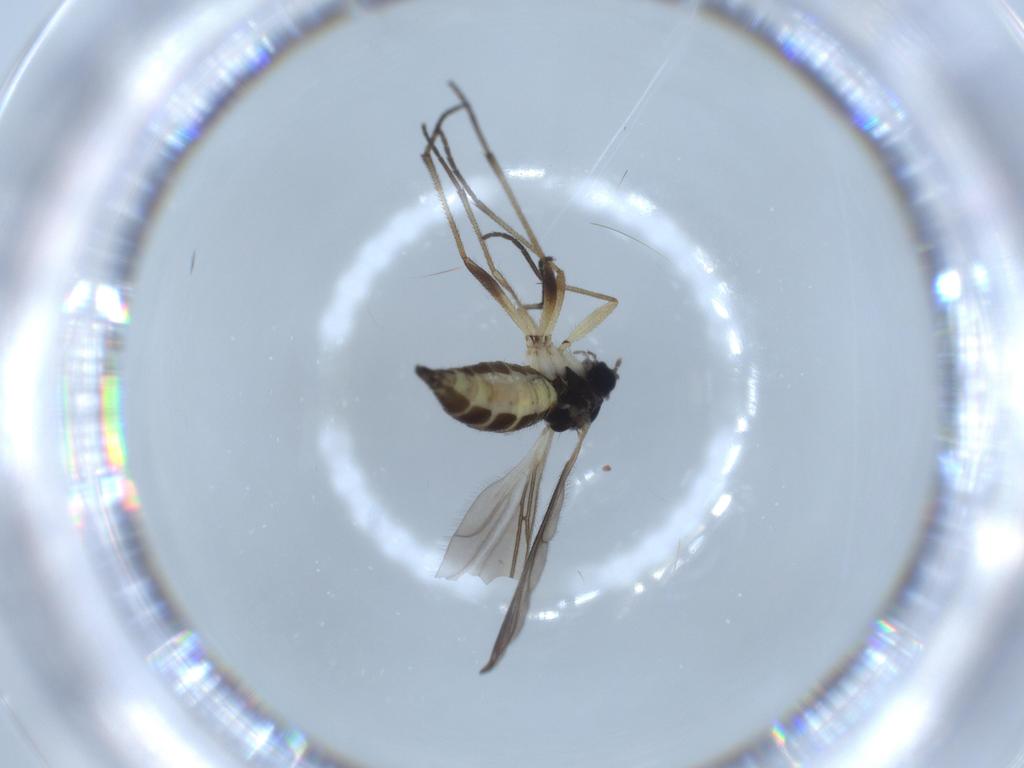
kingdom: Animalia
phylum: Arthropoda
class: Insecta
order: Diptera
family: Sciaridae
